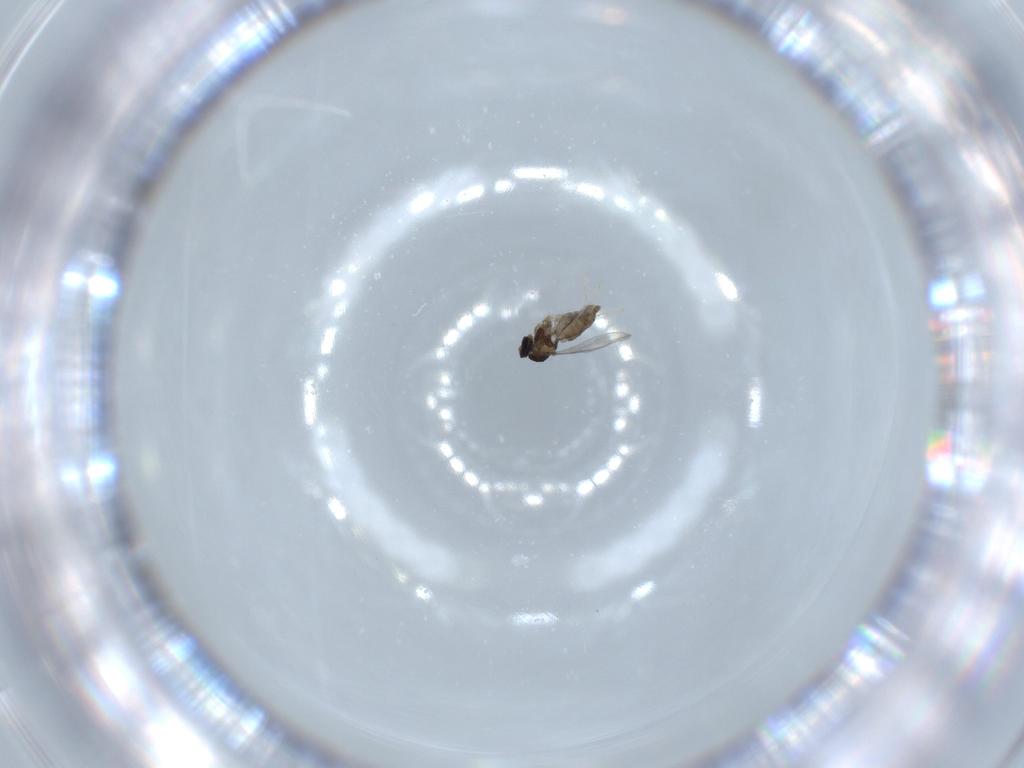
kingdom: Animalia
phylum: Arthropoda
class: Insecta
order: Diptera
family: Cecidomyiidae
